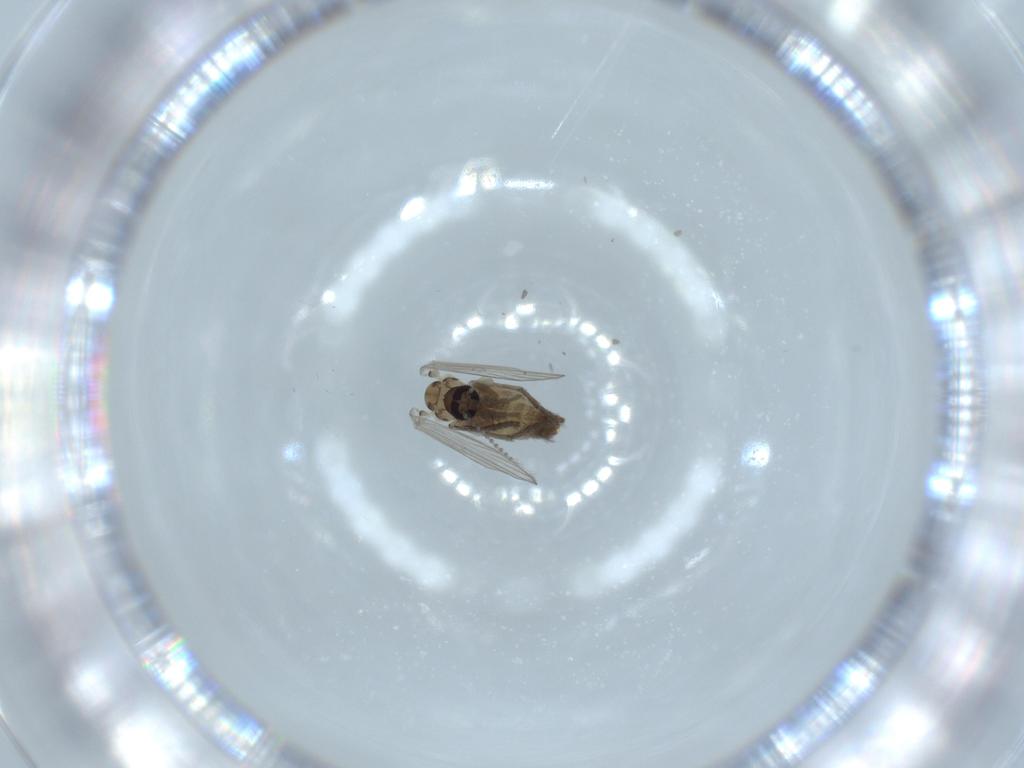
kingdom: Animalia
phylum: Arthropoda
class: Insecta
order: Diptera
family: Psychodidae
